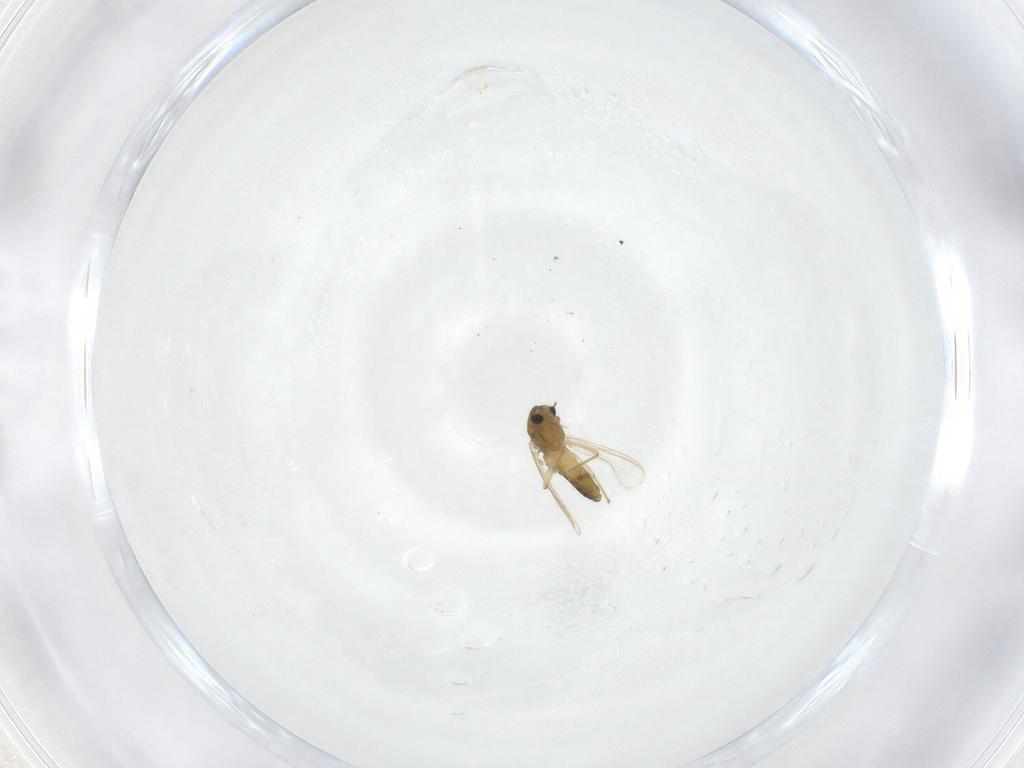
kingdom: Animalia
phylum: Arthropoda
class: Insecta
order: Diptera
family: Chironomidae
